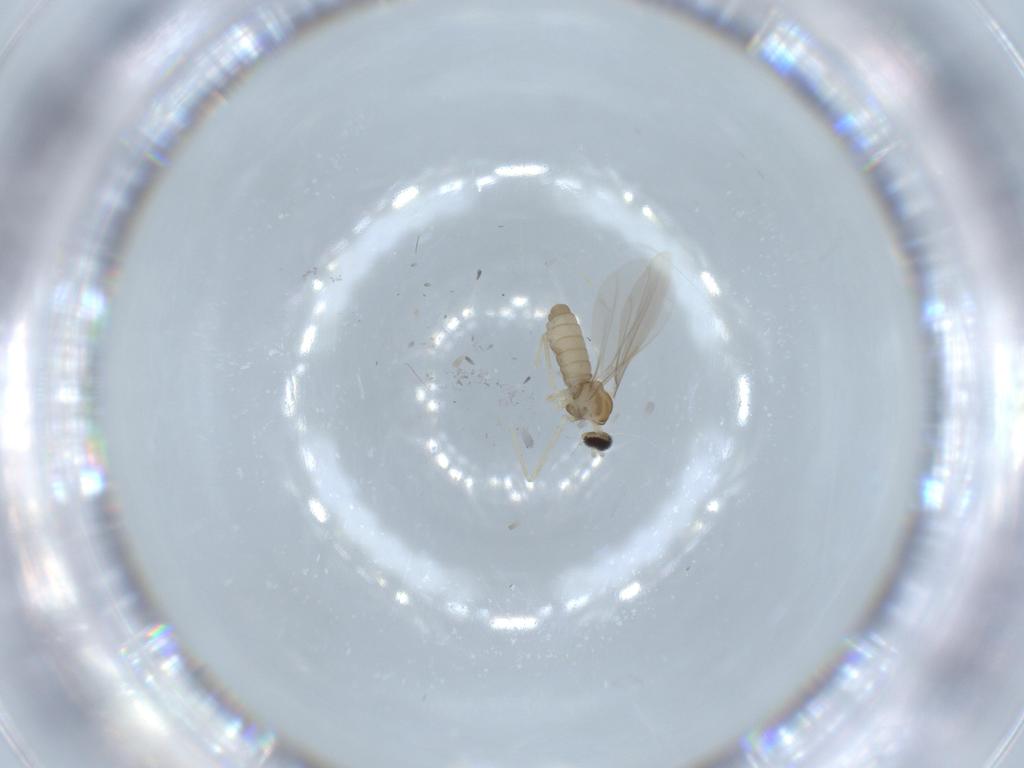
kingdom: Animalia
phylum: Arthropoda
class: Insecta
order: Diptera
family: Cecidomyiidae
